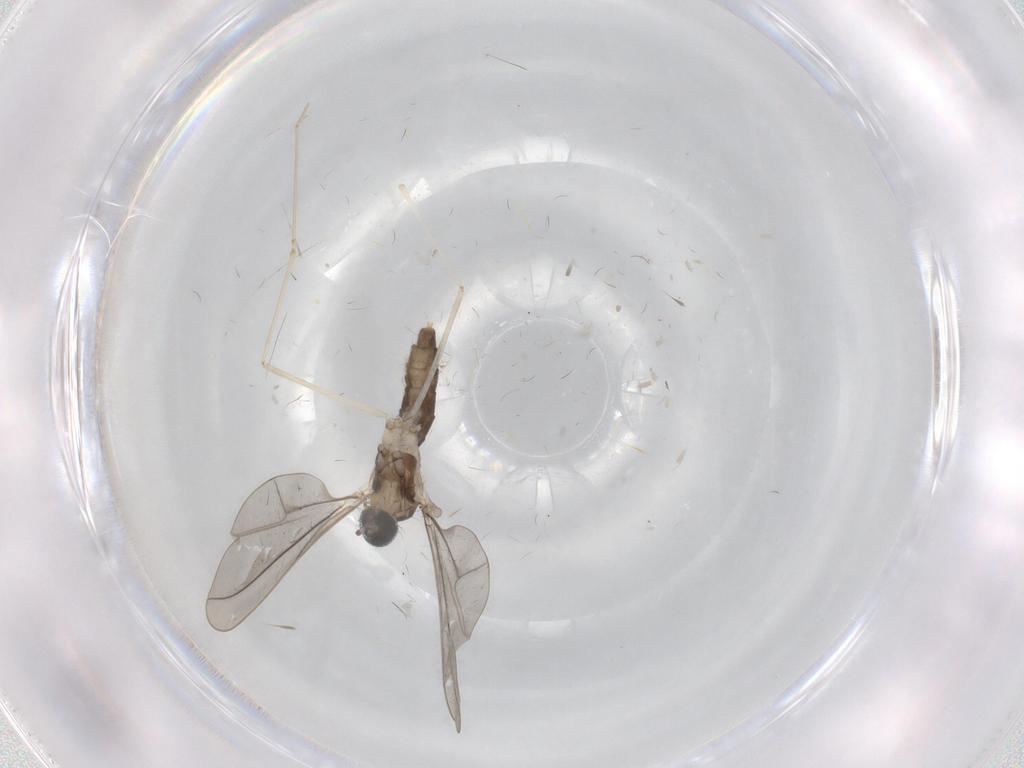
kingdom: Animalia
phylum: Arthropoda
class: Insecta
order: Diptera
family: Cecidomyiidae
